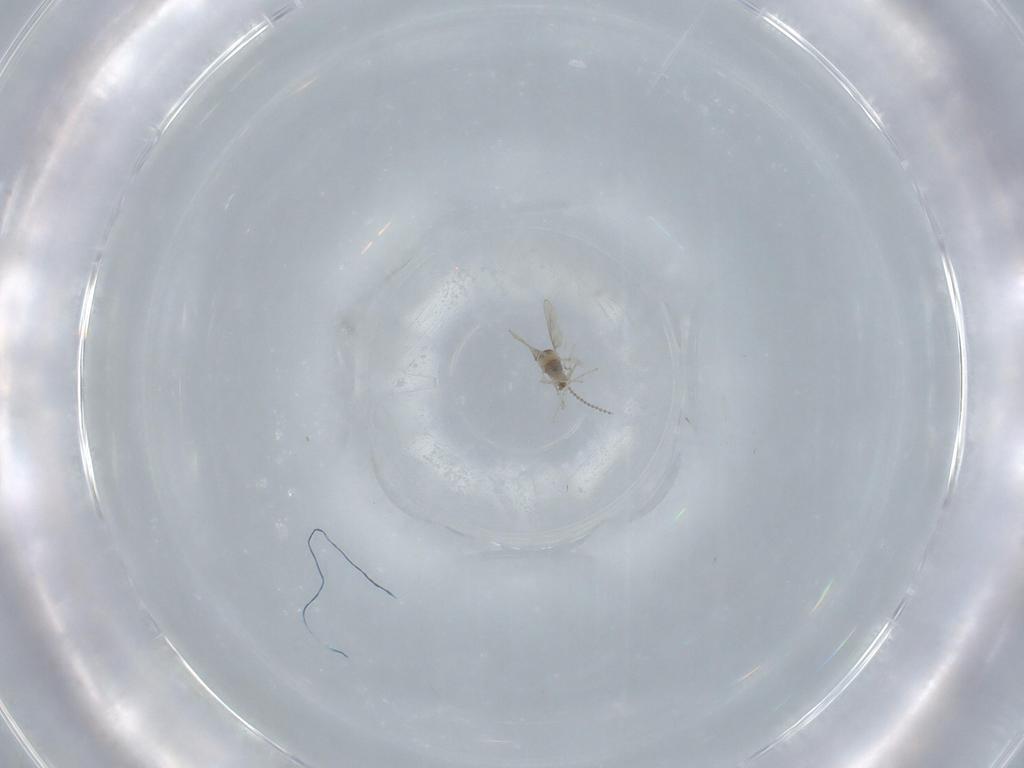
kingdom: Animalia
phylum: Arthropoda
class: Insecta
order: Diptera
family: Cecidomyiidae
